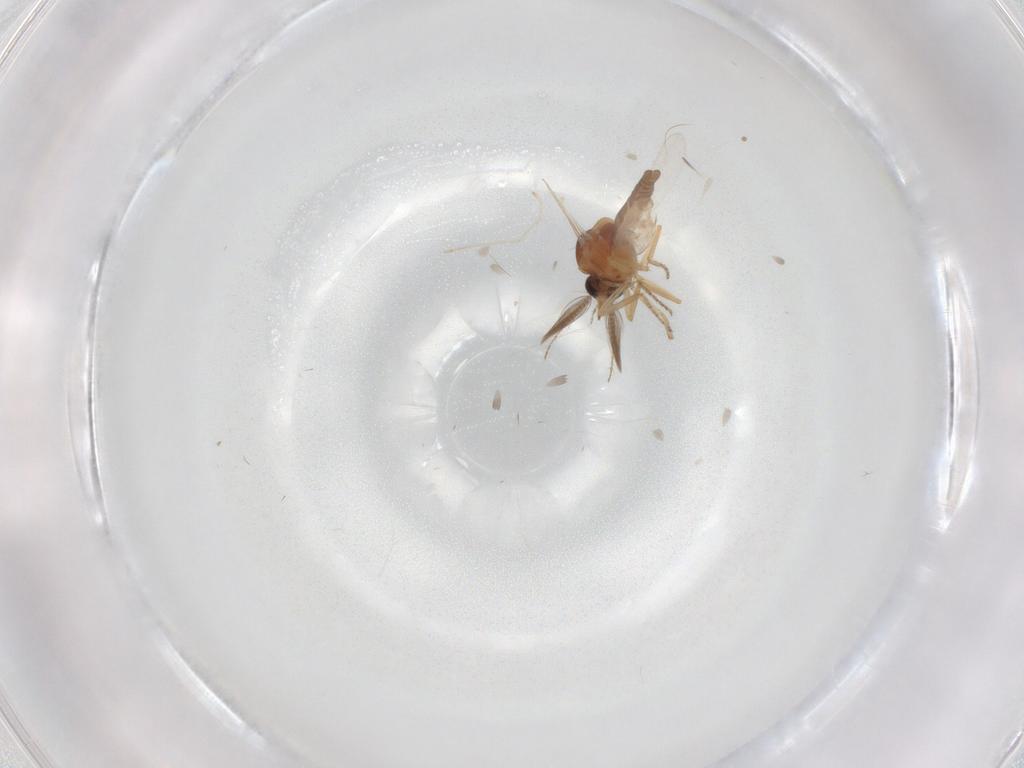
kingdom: Animalia
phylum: Arthropoda
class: Insecta
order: Diptera
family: Ceratopogonidae
